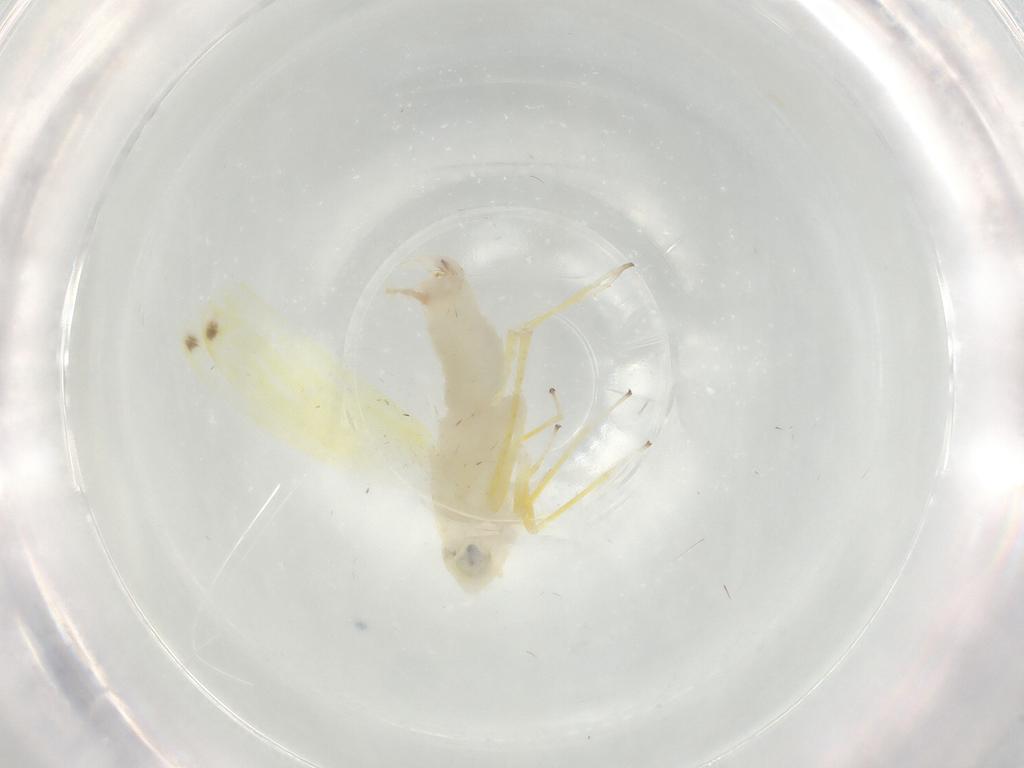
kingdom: Animalia
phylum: Arthropoda
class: Insecta
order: Hemiptera
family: Cicadellidae
